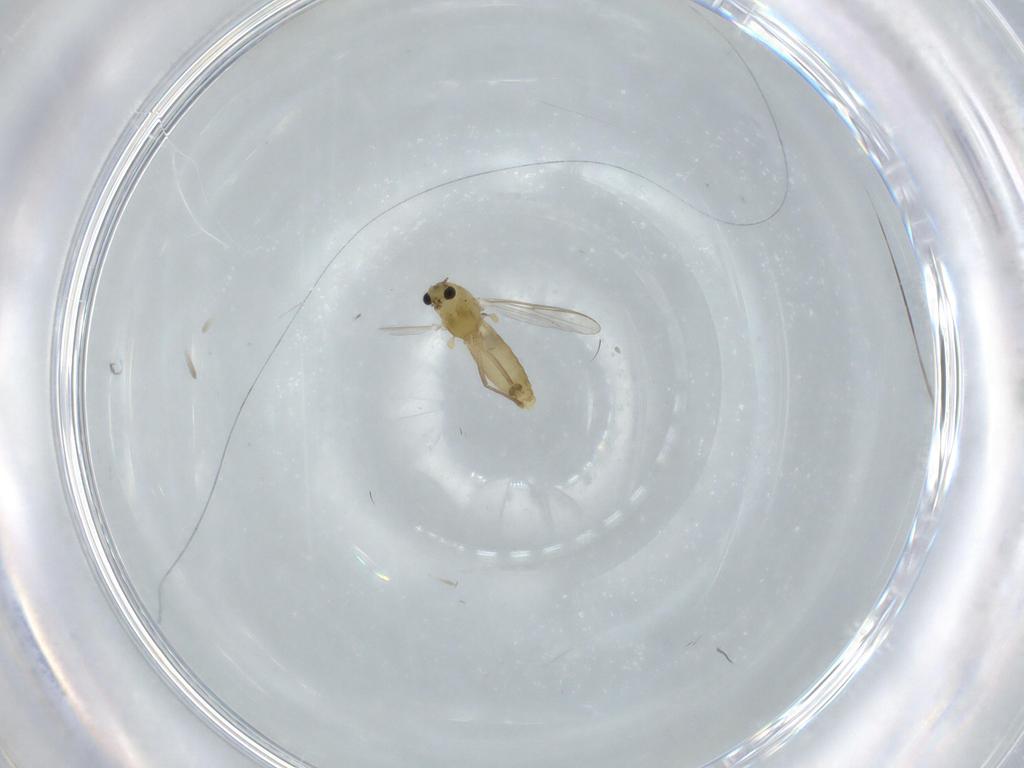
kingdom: Animalia
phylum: Arthropoda
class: Insecta
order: Diptera
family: Chironomidae
